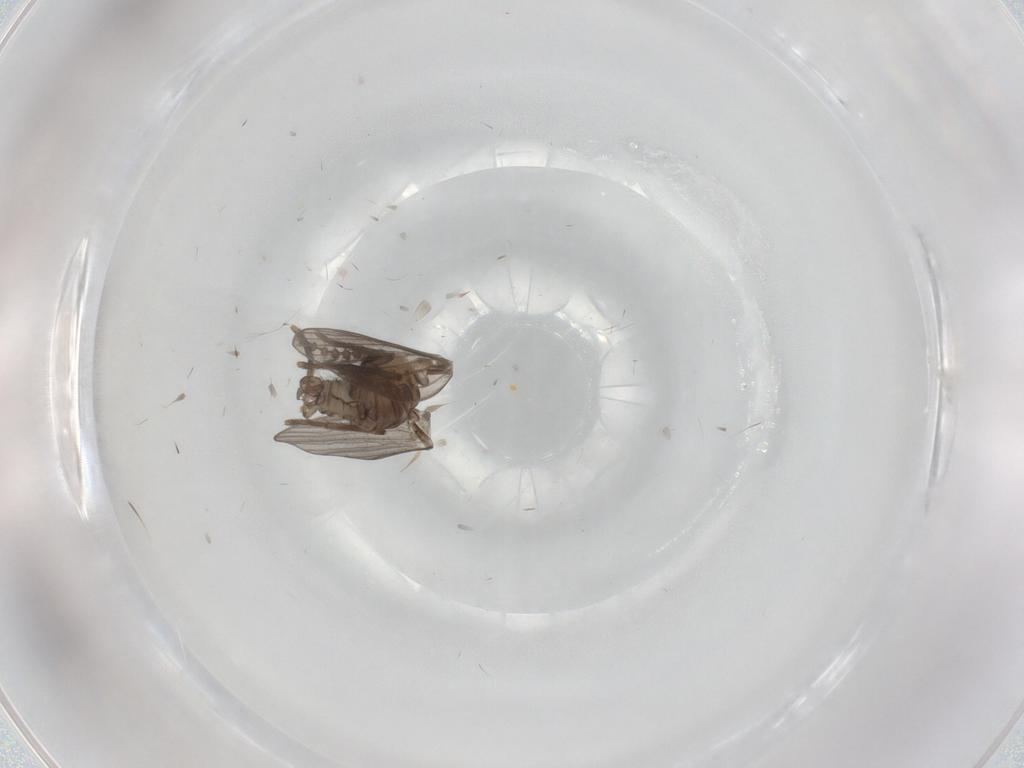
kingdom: Animalia
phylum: Arthropoda
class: Insecta
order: Diptera
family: Psychodidae
